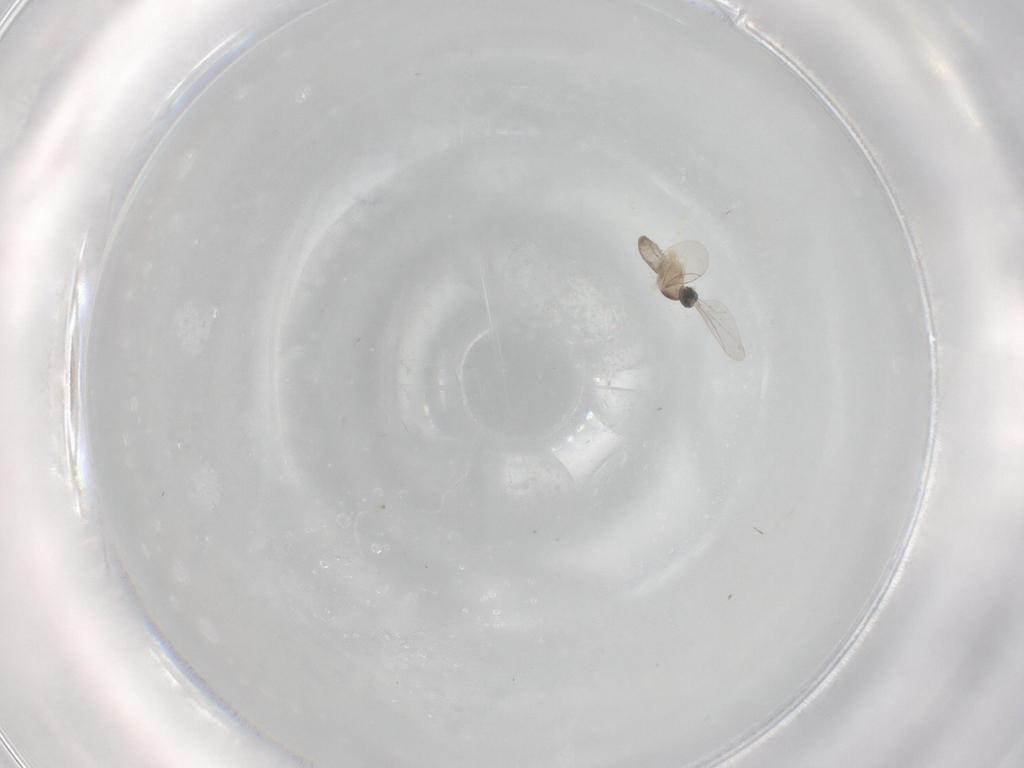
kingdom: Animalia
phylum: Arthropoda
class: Insecta
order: Diptera
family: Cecidomyiidae
